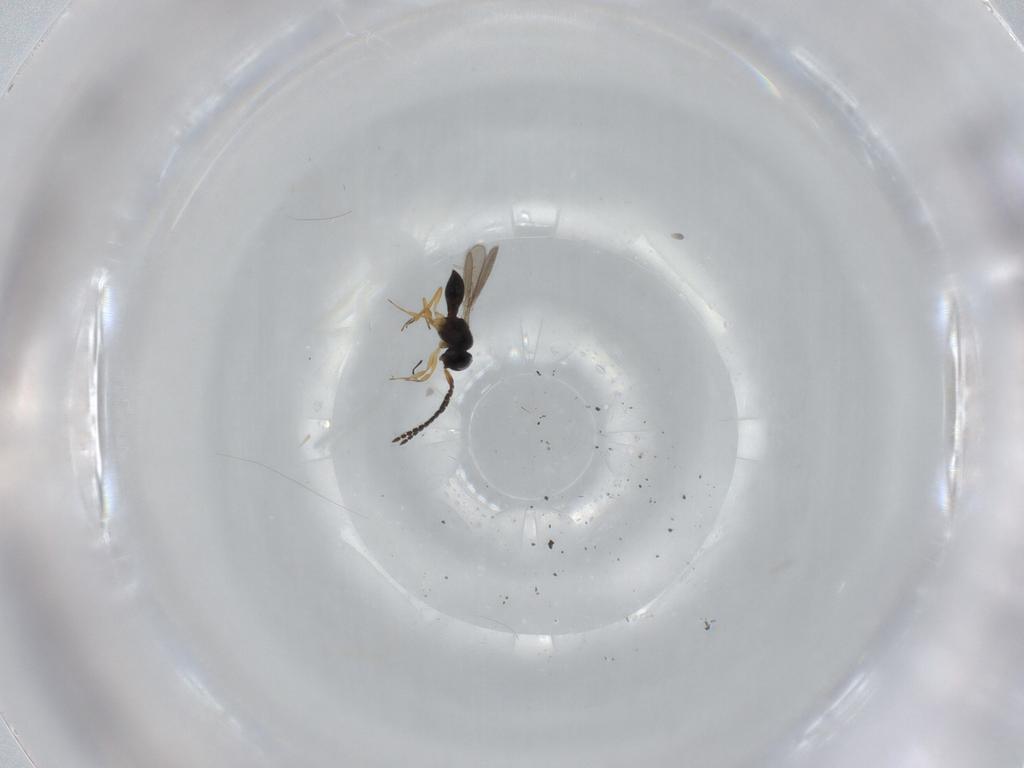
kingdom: Animalia
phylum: Arthropoda
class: Insecta
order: Hymenoptera
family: Scelionidae
